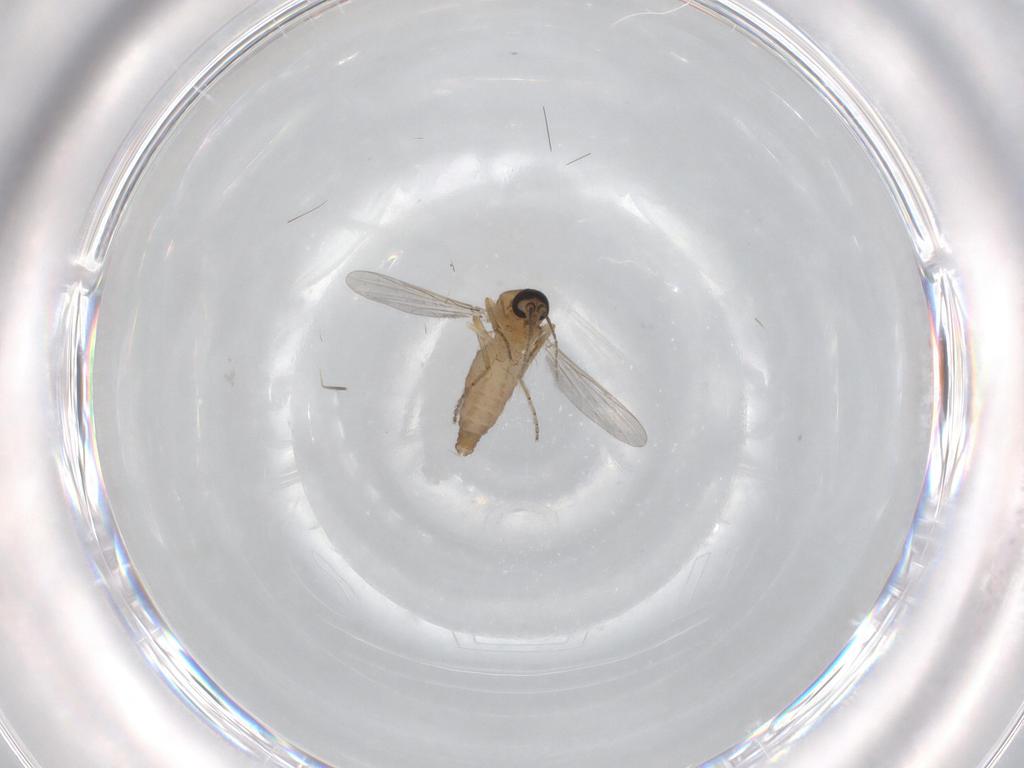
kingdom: Animalia
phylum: Arthropoda
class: Insecta
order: Diptera
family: Ceratopogonidae
